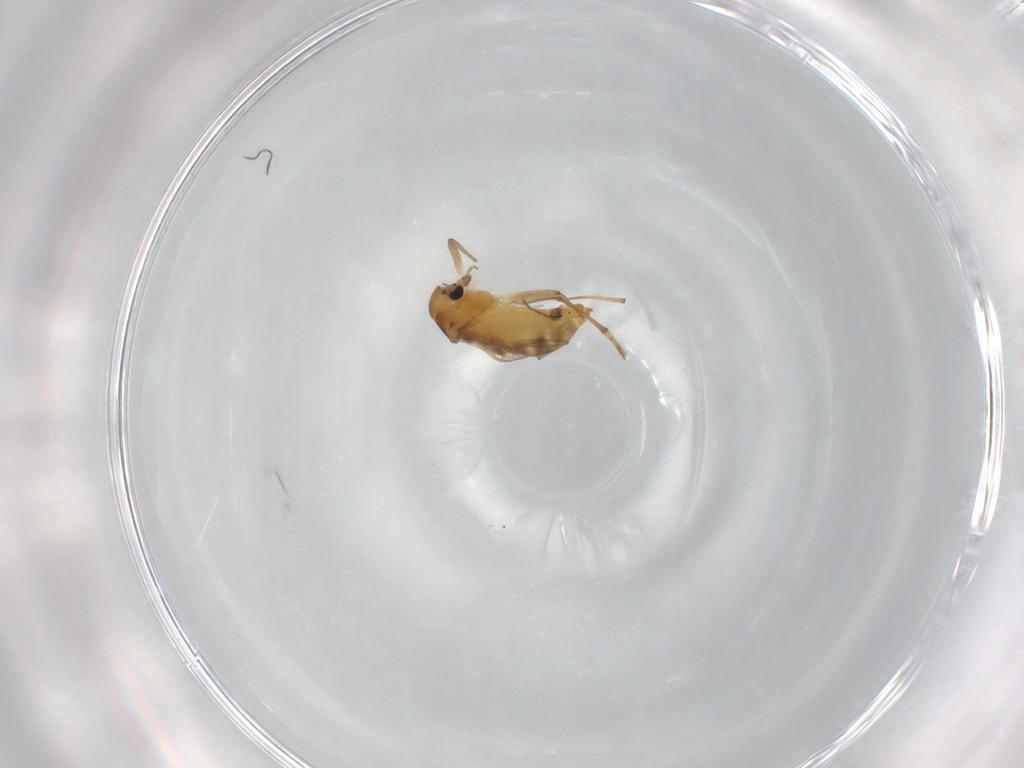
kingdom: Animalia
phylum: Arthropoda
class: Insecta
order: Diptera
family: Chironomidae
